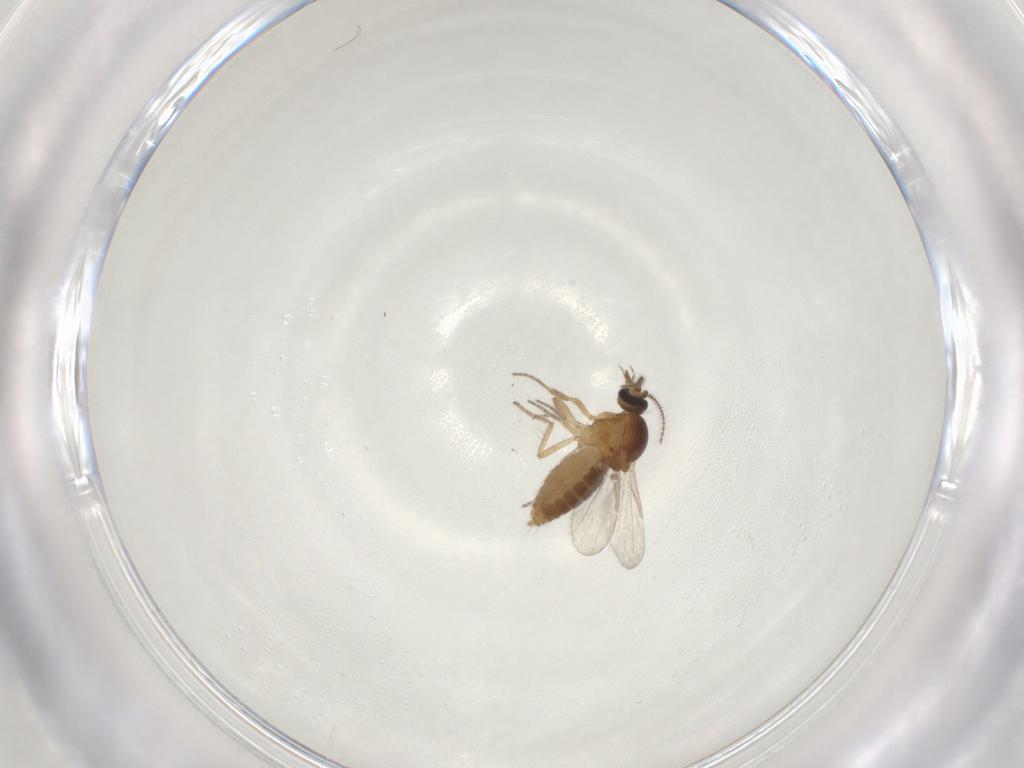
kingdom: Animalia
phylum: Arthropoda
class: Insecta
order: Diptera
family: Ceratopogonidae
